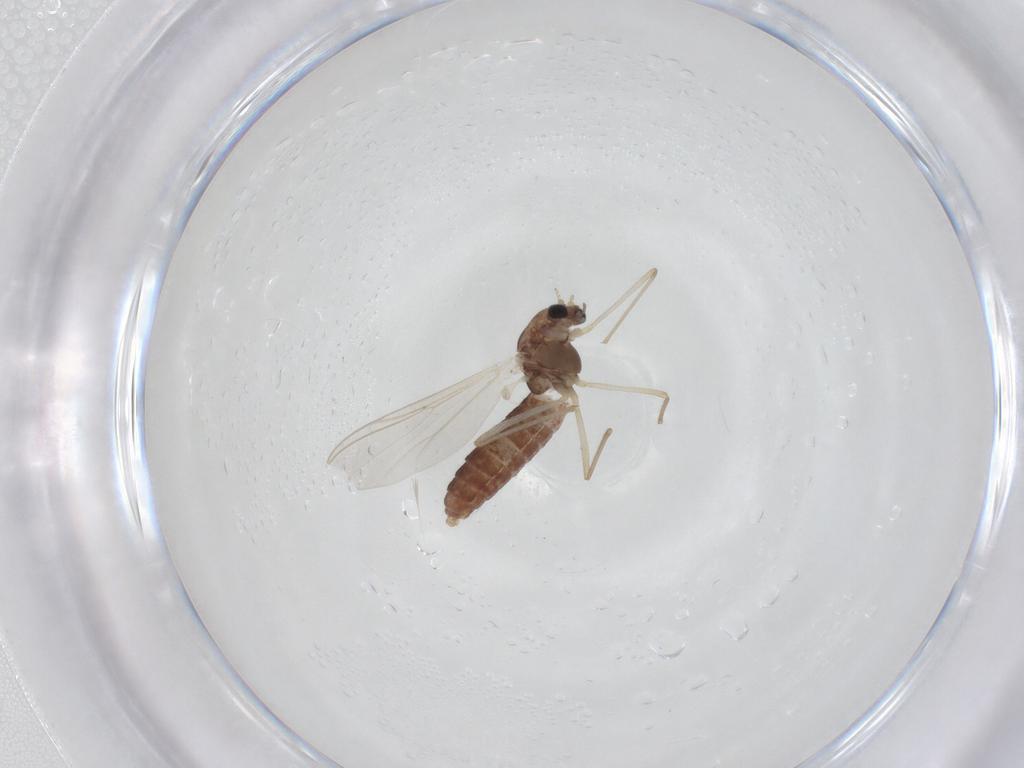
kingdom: Animalia
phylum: Arthropoda
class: Insecta
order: Diptera
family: Chironomidae
